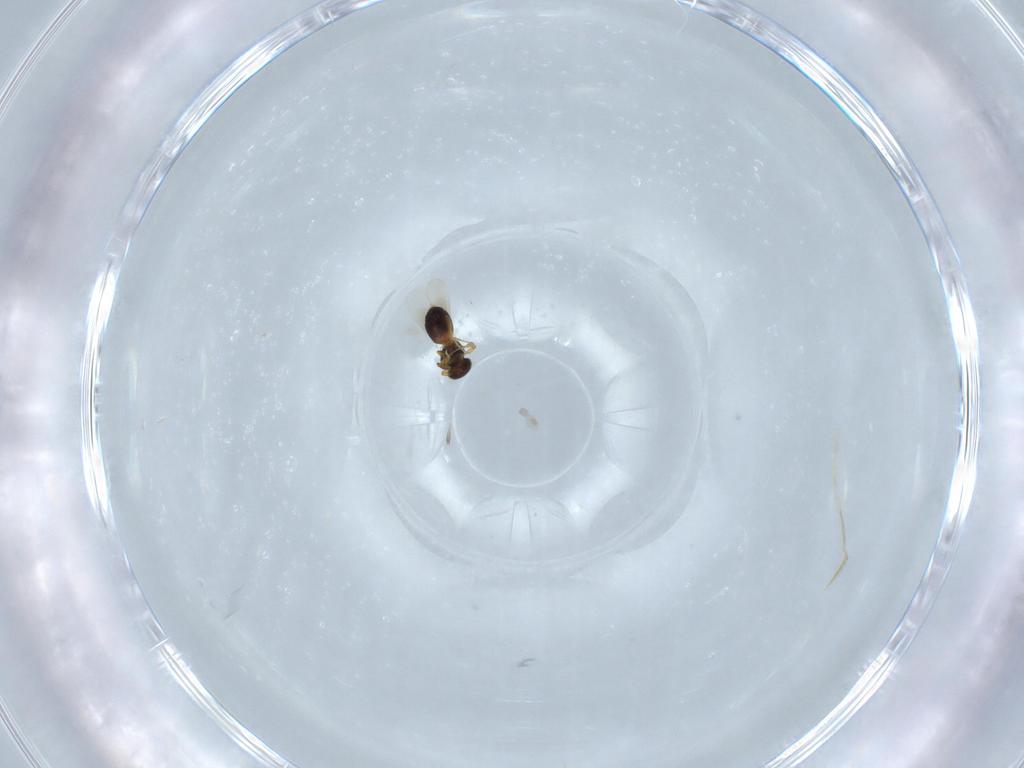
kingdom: Animalia
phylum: Arthropoda
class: Insecta
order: Hymenoptera
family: Platygastridae
